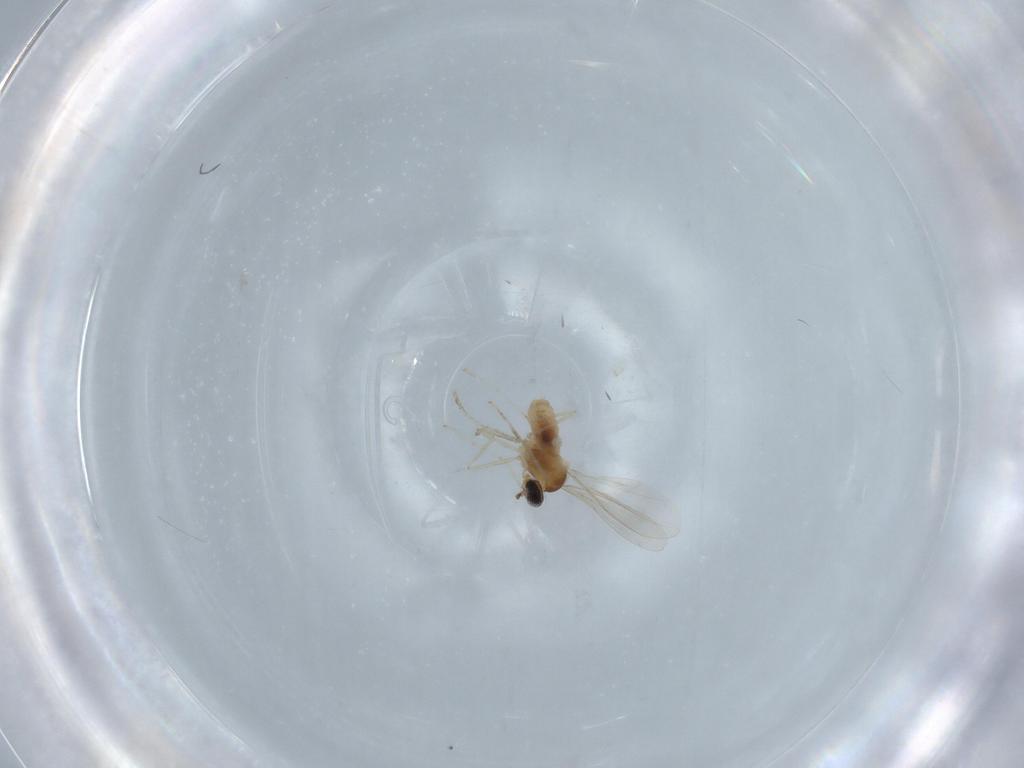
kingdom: Animalia
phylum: Arthropoda
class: Insecta
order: Diptera
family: Cecidomyiidae
